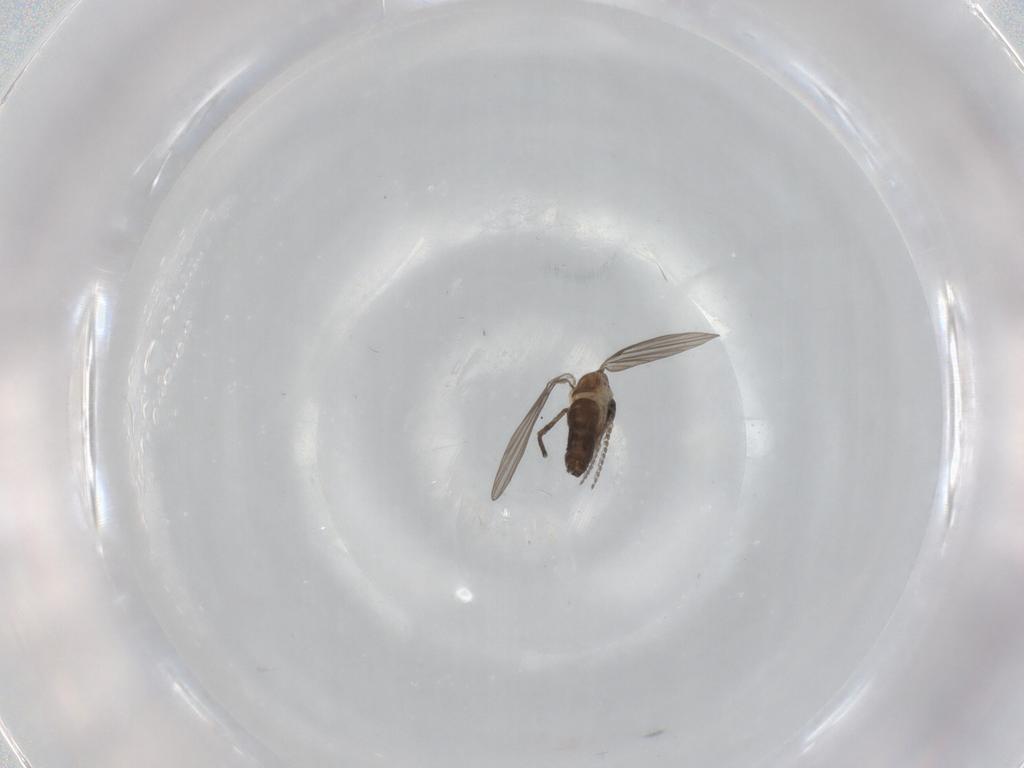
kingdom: Animalia
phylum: Arthropoda
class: Insecta
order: Diptera
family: Psychodidae
